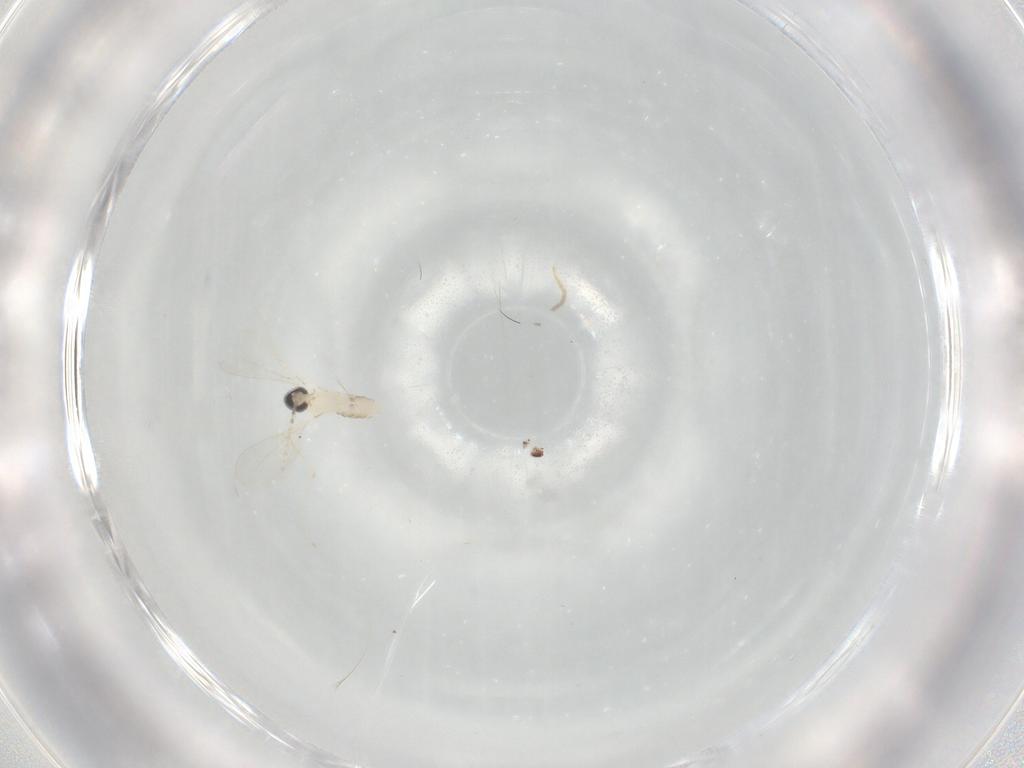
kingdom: Animalia
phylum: Arthropoda
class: Insecta
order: Diptera
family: Cecidomyiidae
